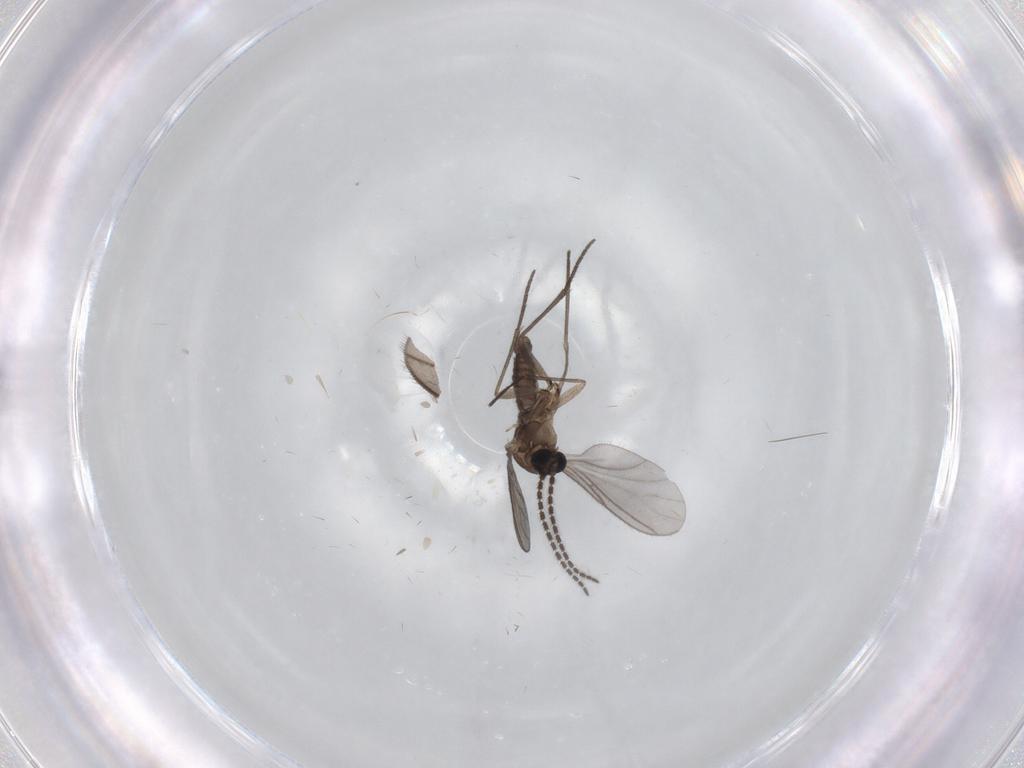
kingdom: Animalia
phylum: Arthropoda
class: Insecta
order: Diptera
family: Sciaridae
